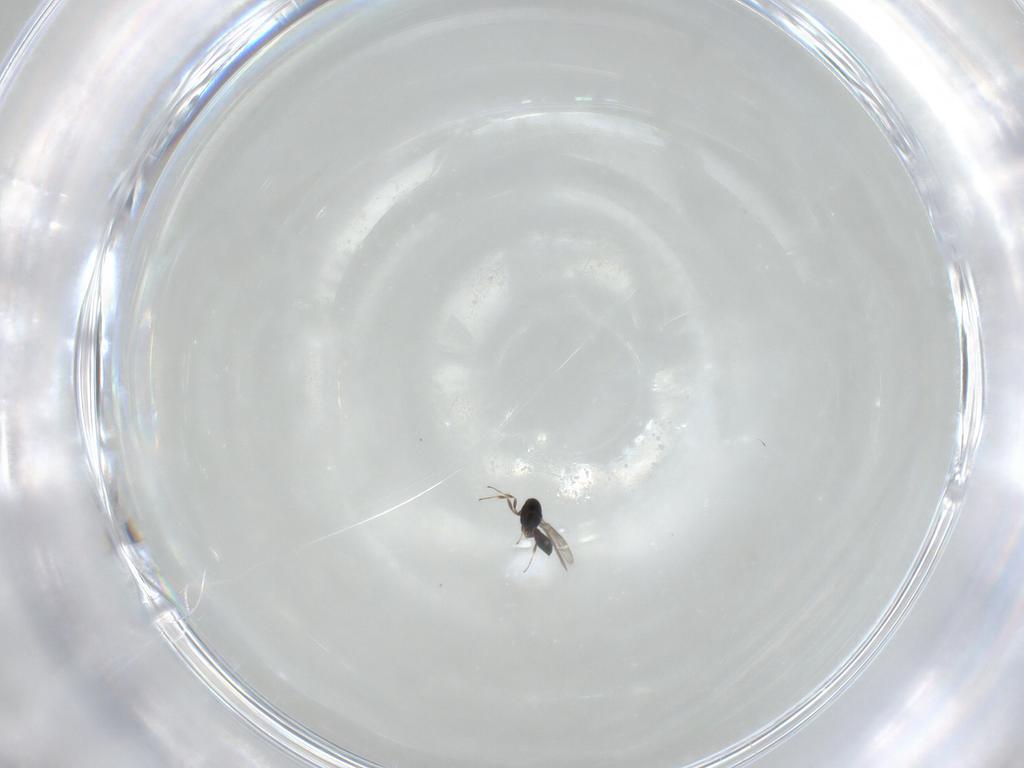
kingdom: Animalia
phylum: Arthropoda
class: Insecta
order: Hymenoptera
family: Scelionidae
